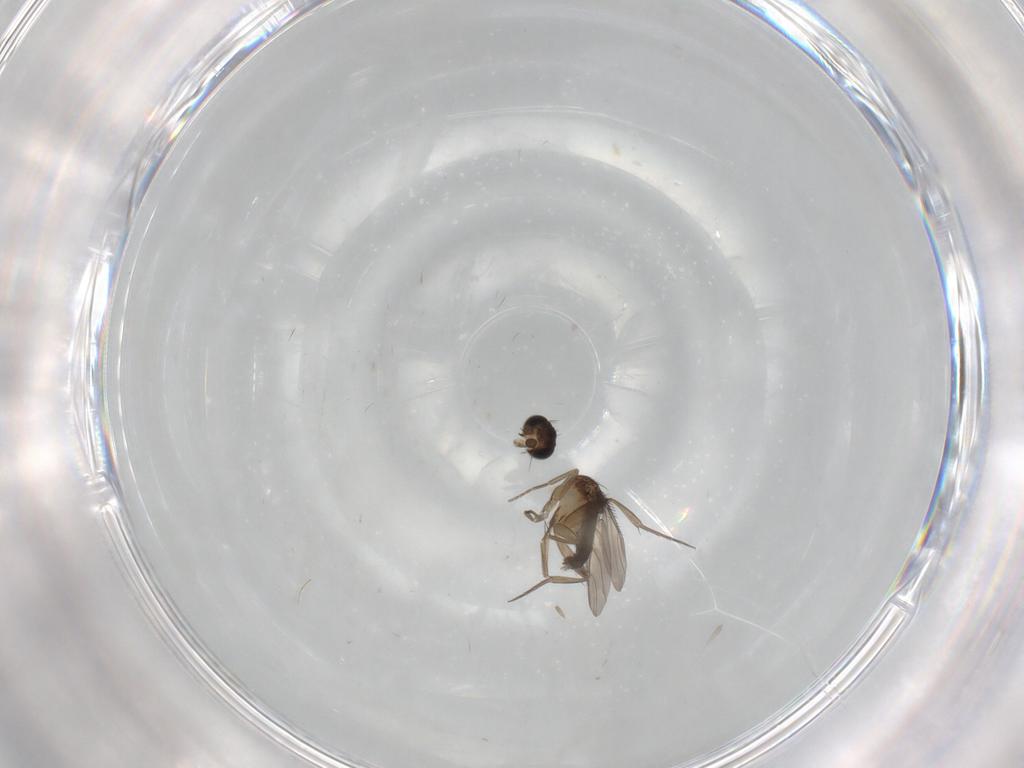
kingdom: Animalia
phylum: Arthropoda
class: Insecta
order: Diptera
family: Phoridae
